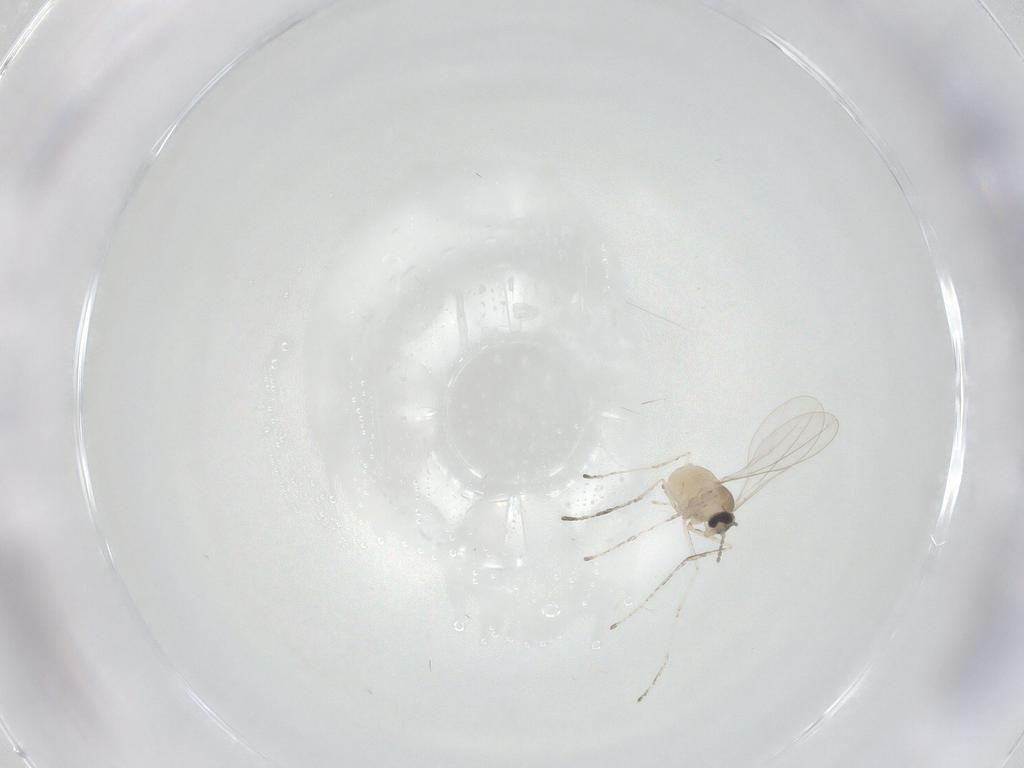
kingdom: Animalia
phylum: Arthropoda
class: Insecta
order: Diptera
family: Cecidomyiidae
